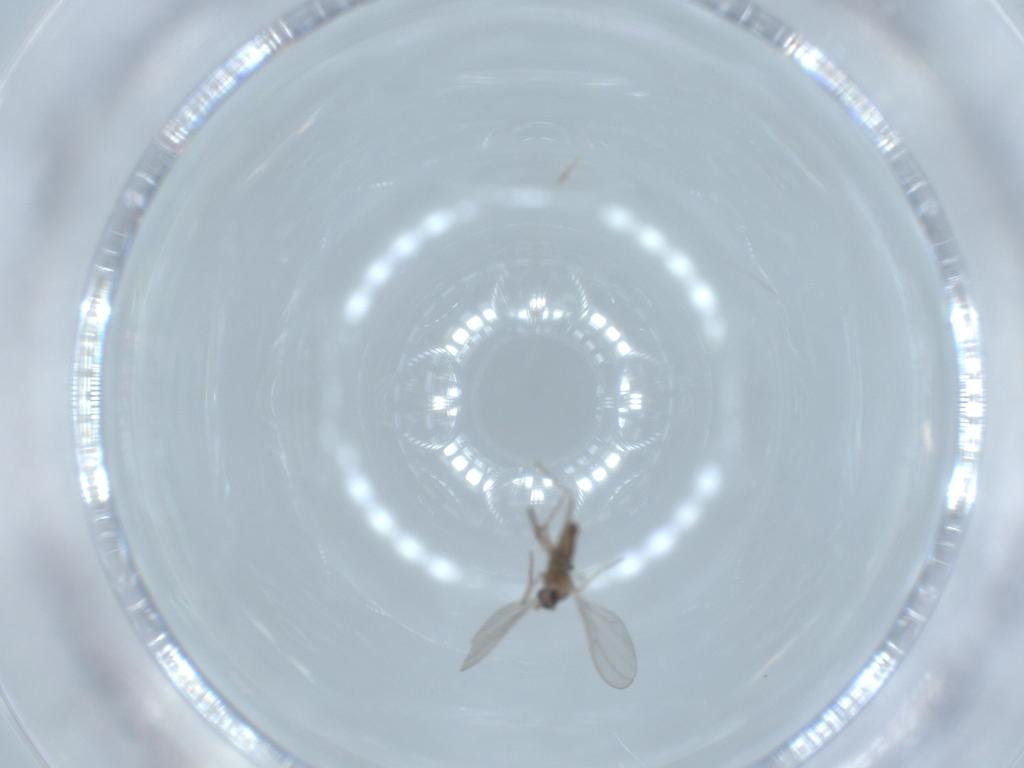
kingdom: Animalia
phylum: Arthropoda
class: Insecta
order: Diptera
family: Cecidomyiidae
